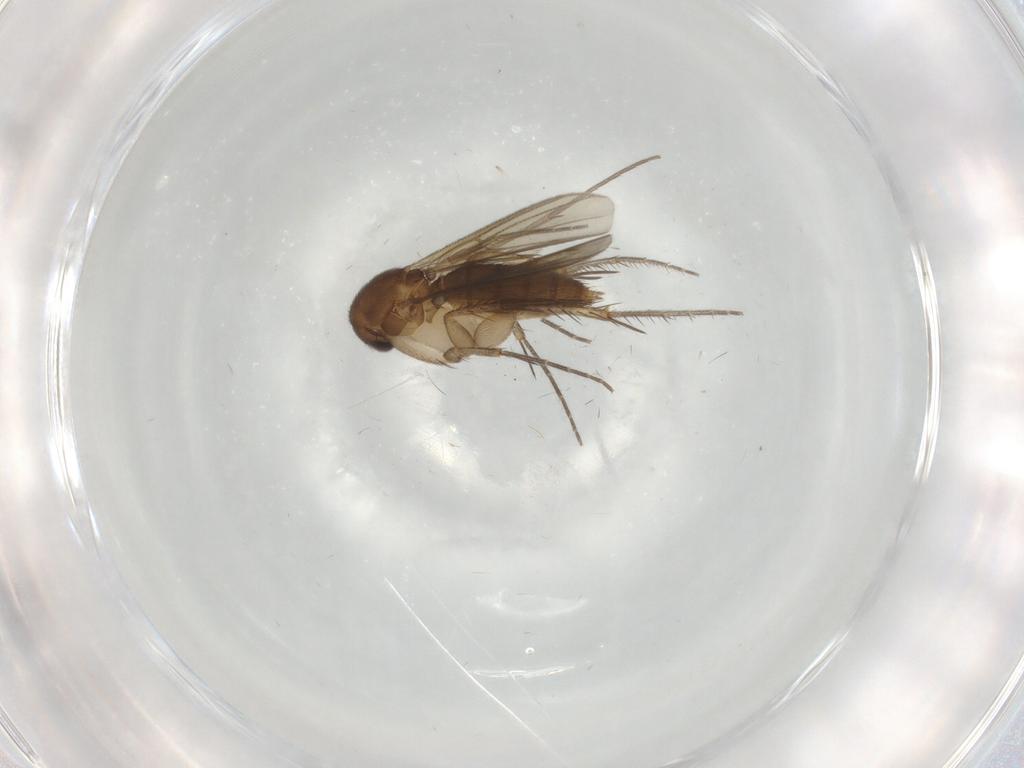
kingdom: Animalia
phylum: Arthropoda
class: Insecta
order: Diptera
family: Mycetophilidae
